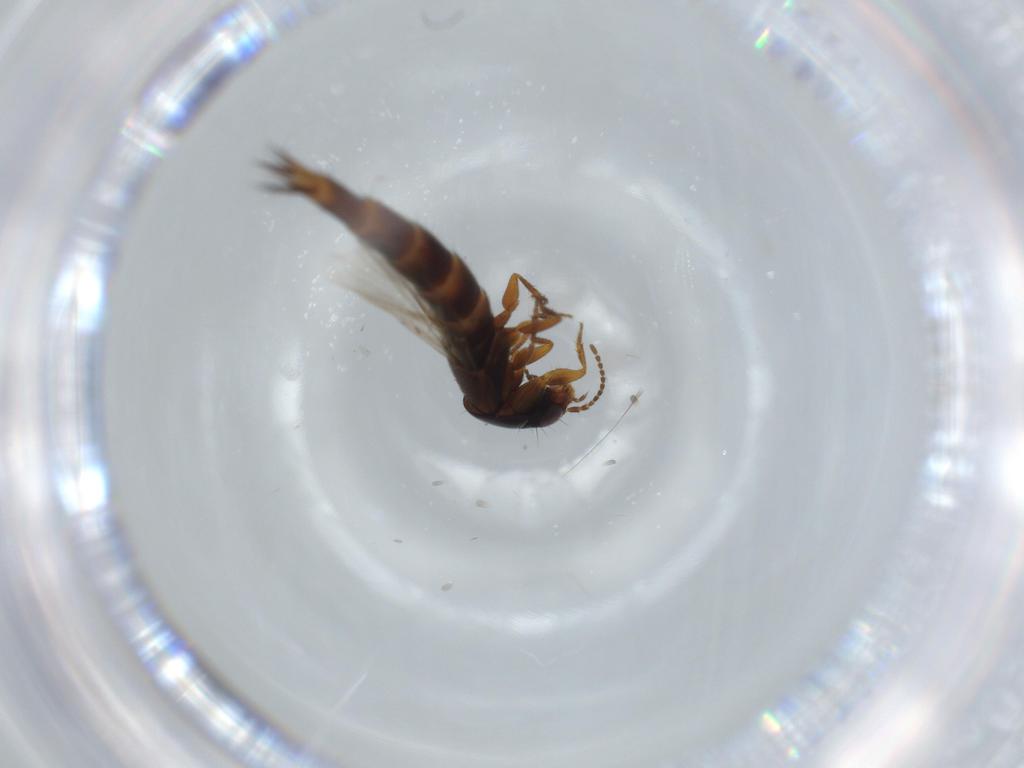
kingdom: Animalia
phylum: Arthropoda
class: Insecta
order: Coleoptera
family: Chrysomelidae
